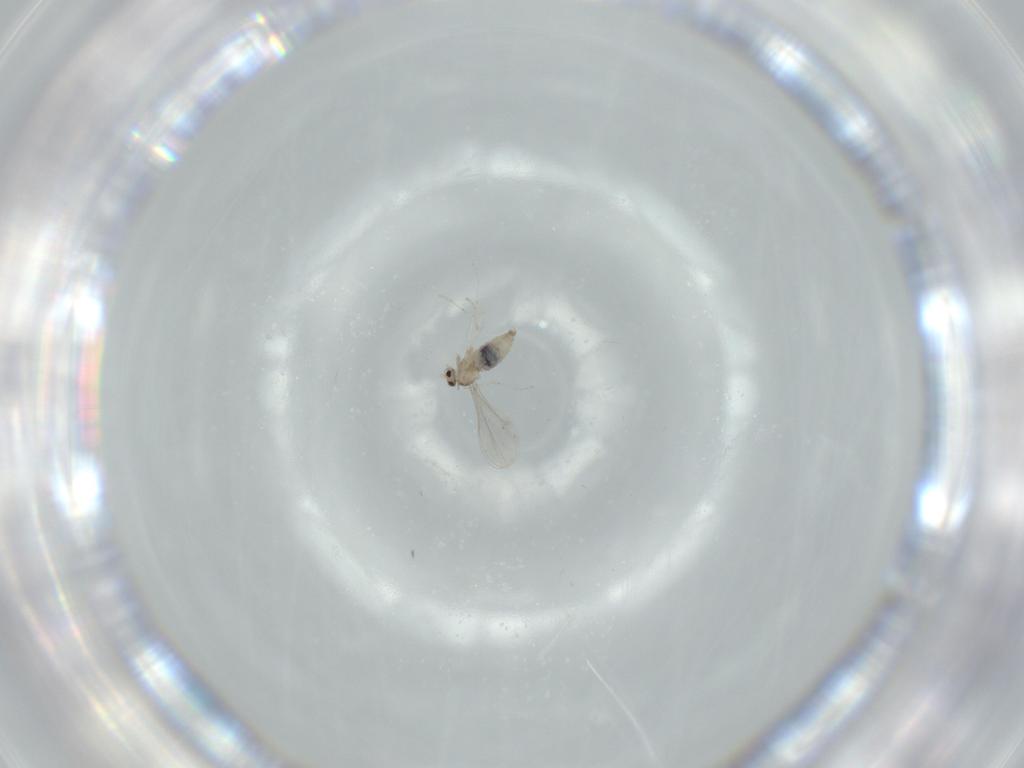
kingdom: Animalia
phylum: Arthropoda
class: Insecta
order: Diptera
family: Cecidomyiidae
